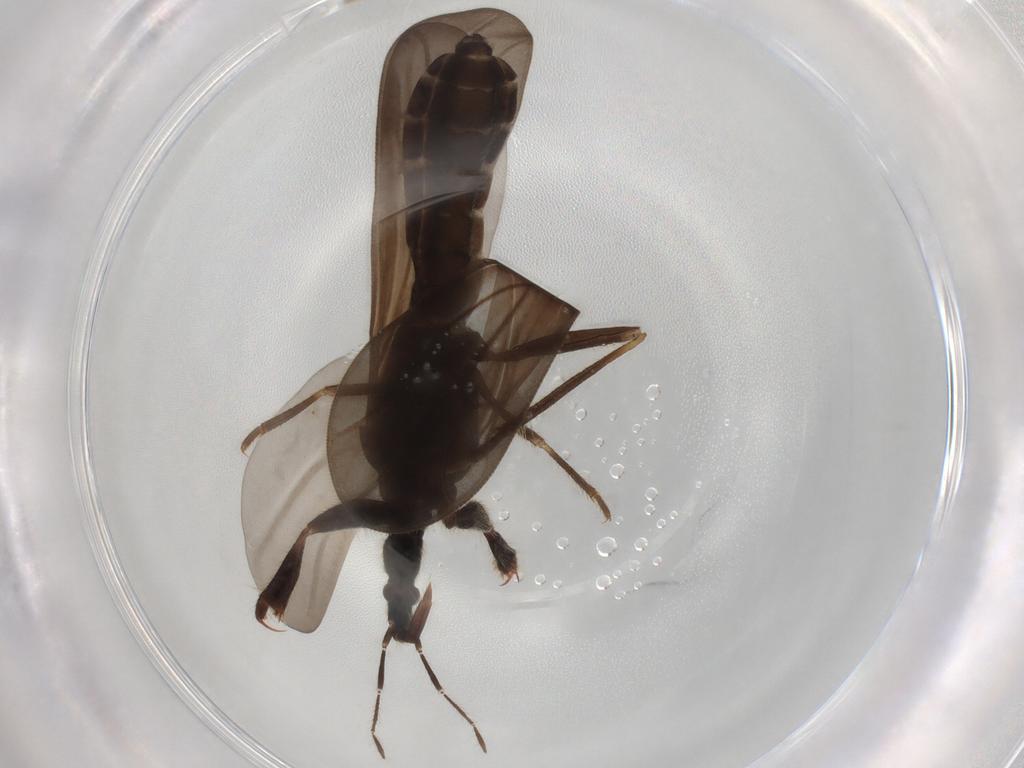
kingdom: Animalia
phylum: Arthropoda
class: Insecta
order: Hemiptera
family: Enicocephalidae
